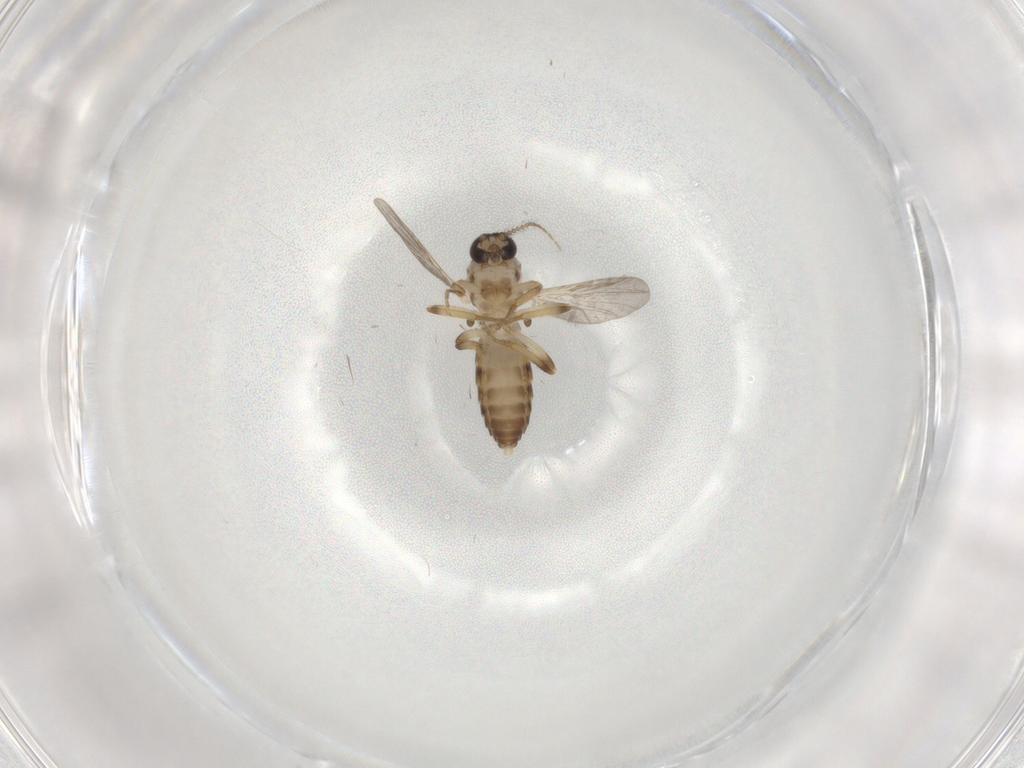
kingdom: Animalia
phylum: Arthropoda
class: Insecta
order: Diptera
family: Ceratopogonidae
